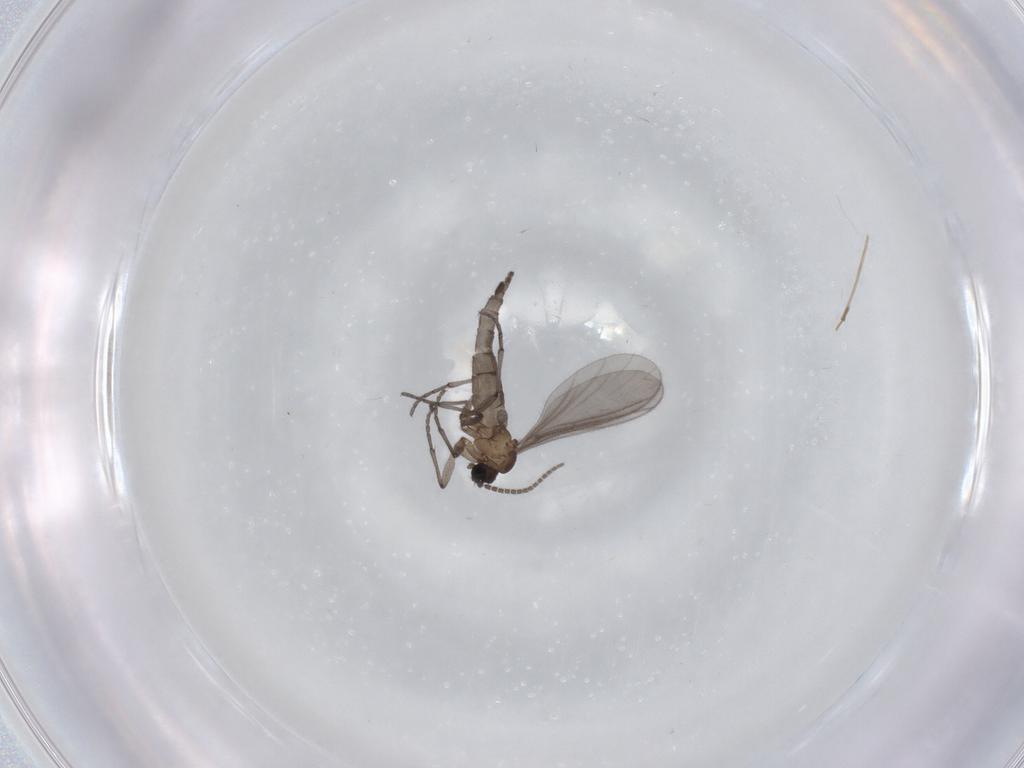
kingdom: Animalia
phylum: Arthropoda
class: Insecta
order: Diptera
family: Sciaridae
